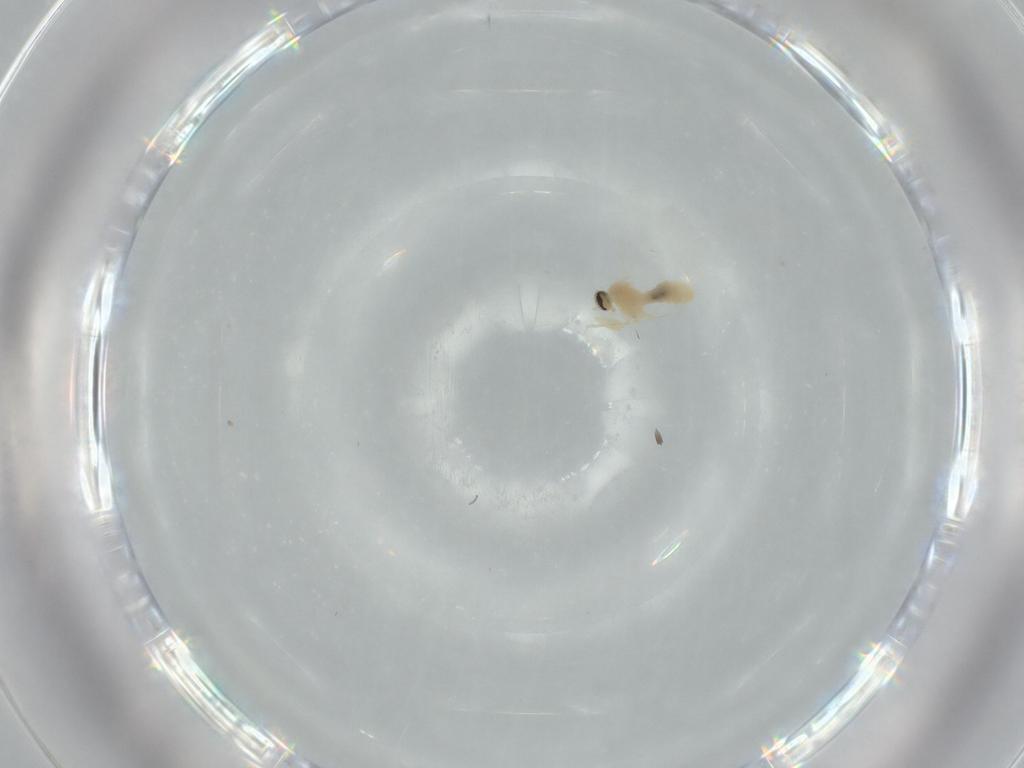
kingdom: Animalia
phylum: Arthropoda
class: Insecta
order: Diptera
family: Cecidomyiidae
